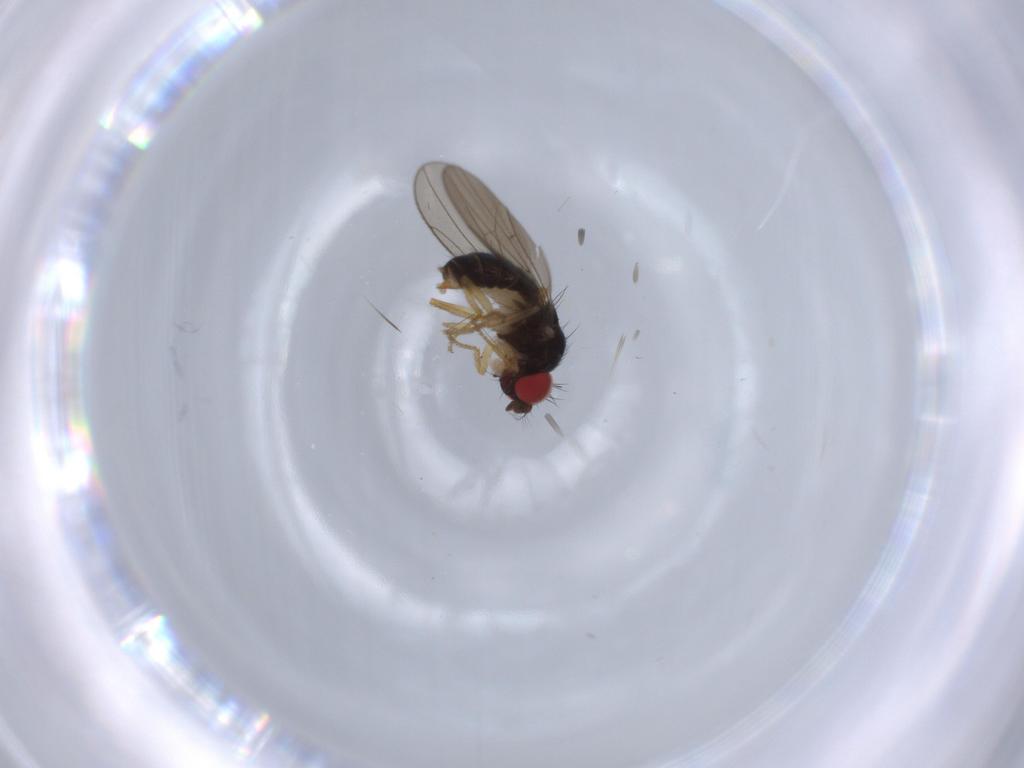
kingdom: Animalia
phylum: Arthropoda
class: Insecta
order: Diptera
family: Drosophilidae
